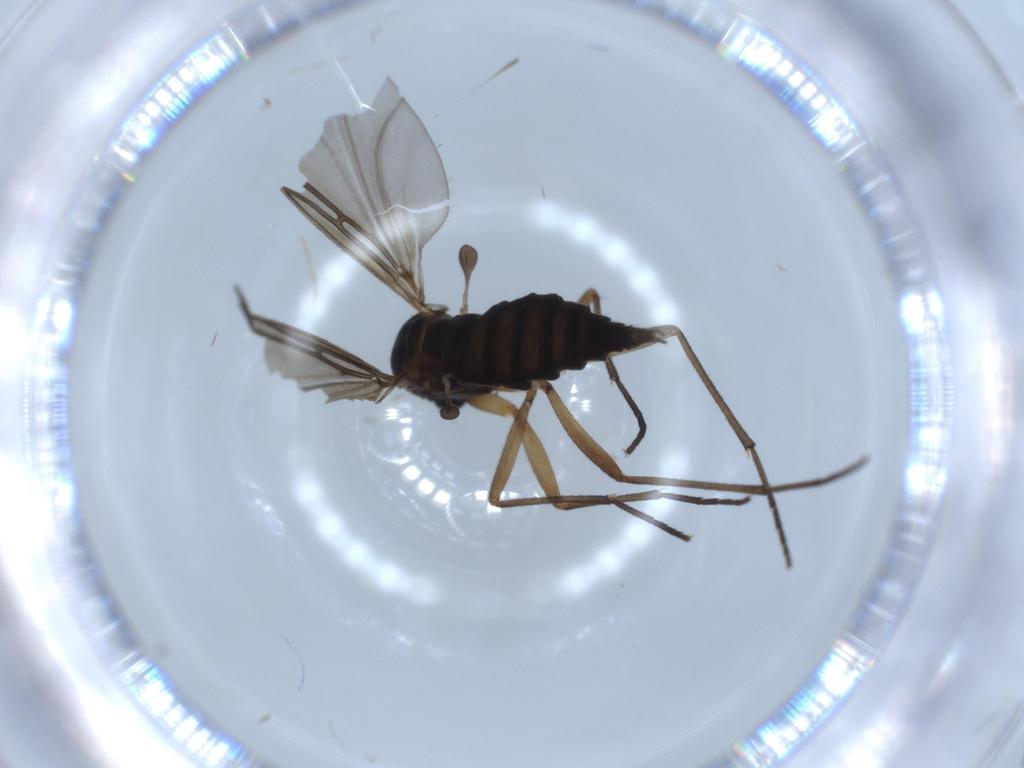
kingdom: Animalia
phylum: Arthropoda
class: Insecta
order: Diptera
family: Sciaridae
